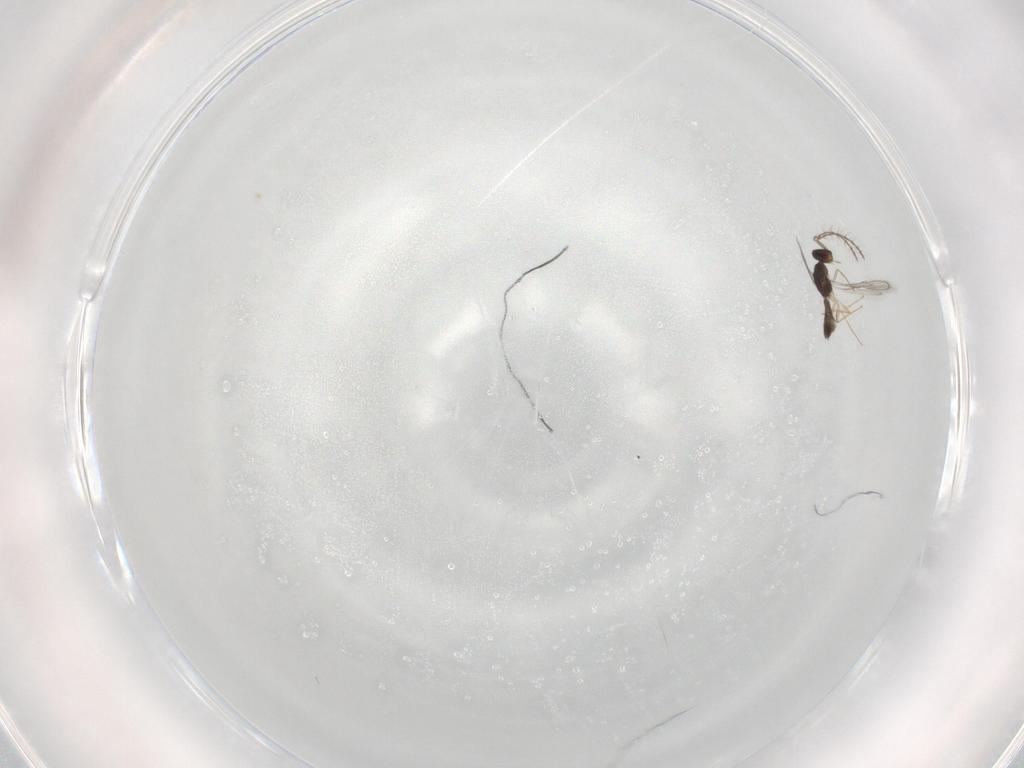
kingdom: Animalia
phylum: Arthropoda
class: Insecta
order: Hymenoptera
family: Pteromalidae
